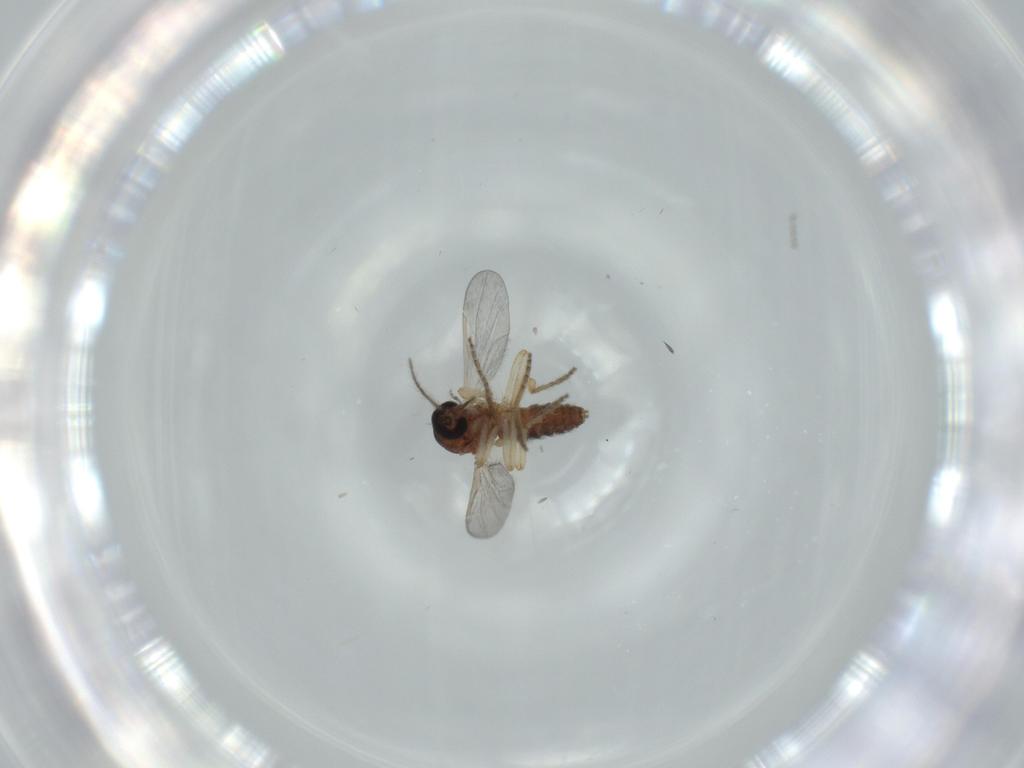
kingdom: Animalia
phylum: Arthropoda
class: Insecta
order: Diptera
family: Ceratopogonidae
